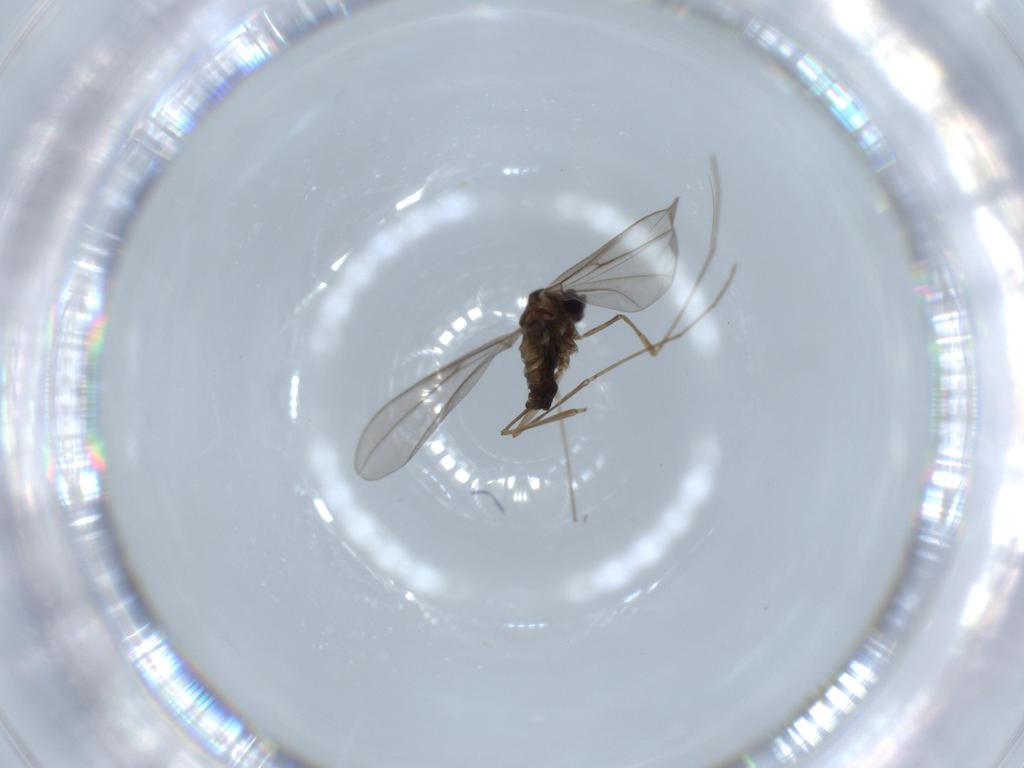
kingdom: Animalia
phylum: Arthropoda
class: Insecta
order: Diptera
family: Cecidomyiidae
